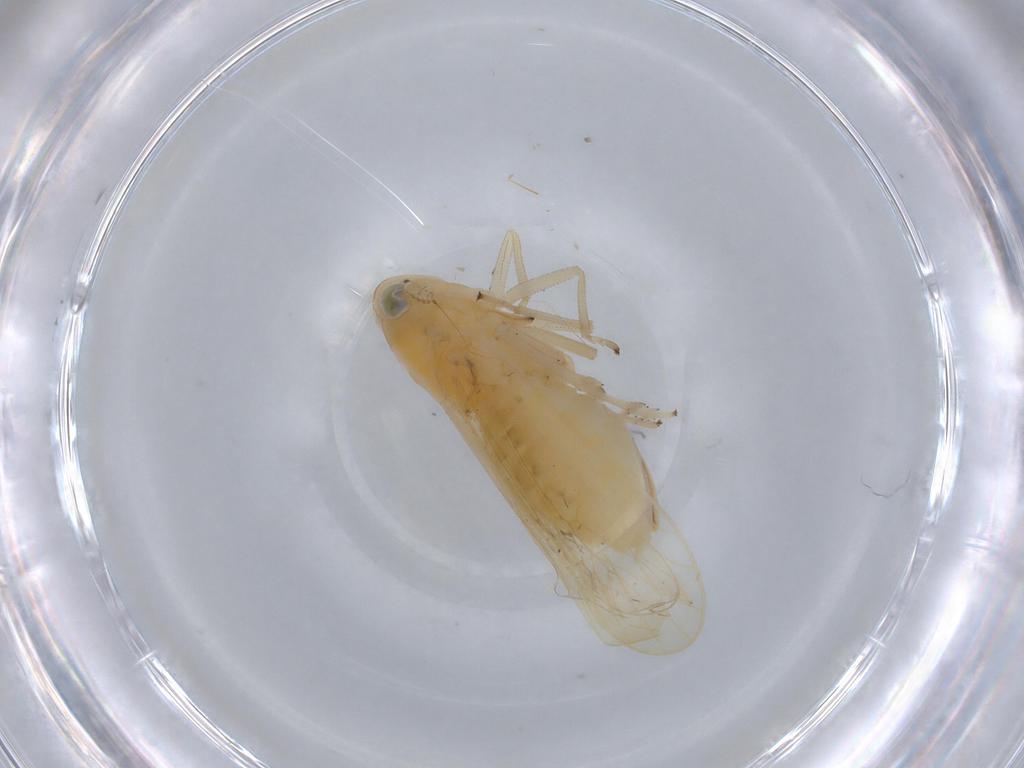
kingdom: Animalia
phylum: Arthropoda
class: Insecta
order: Hemiptera
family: Delphacidae
